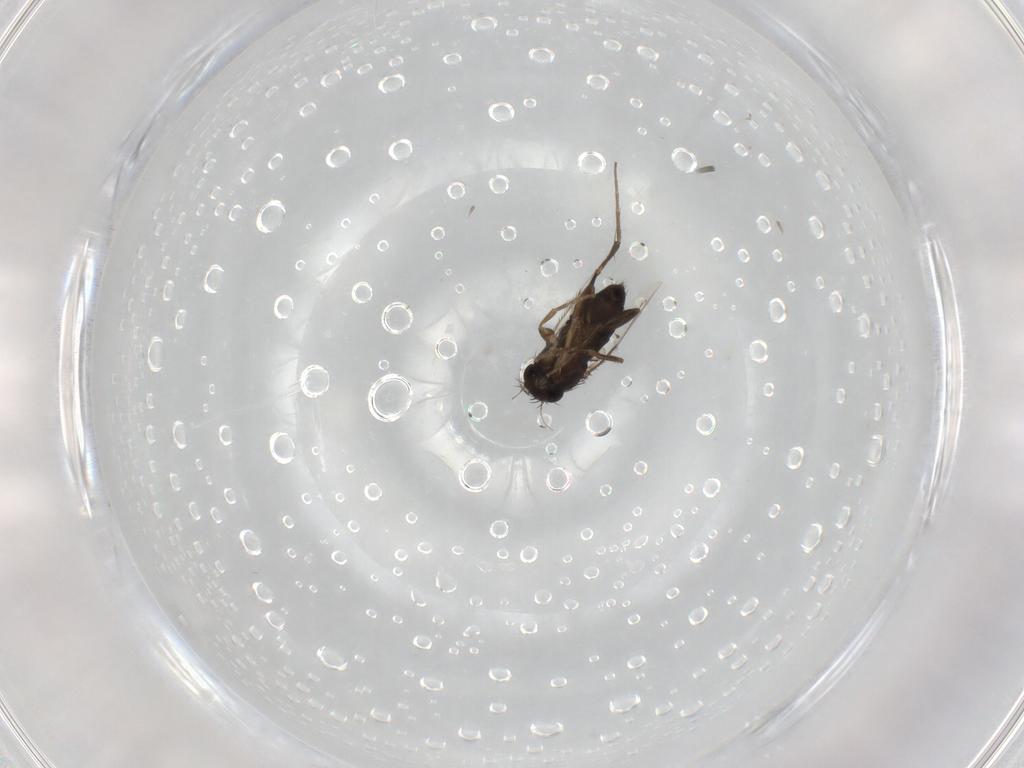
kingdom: Animalia
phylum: Arthropoda
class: Insecta
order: Diptera
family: Phoridae
